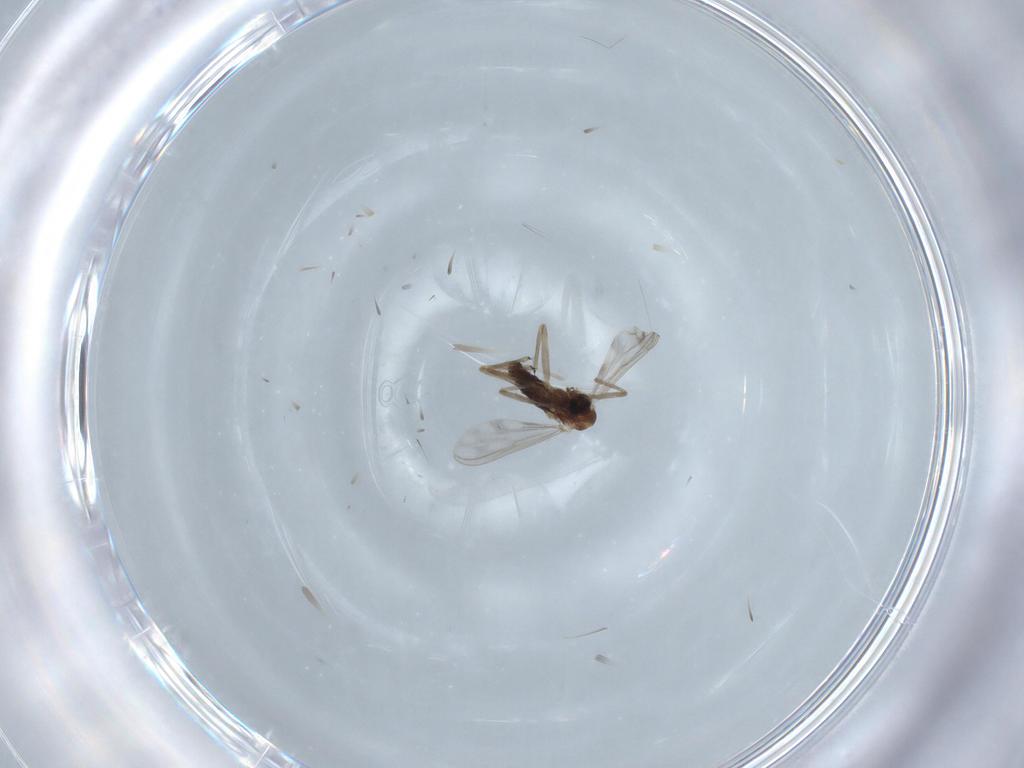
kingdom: Animalia
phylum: Arthropoda
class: Insecta
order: Diptera
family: Chironomidae
